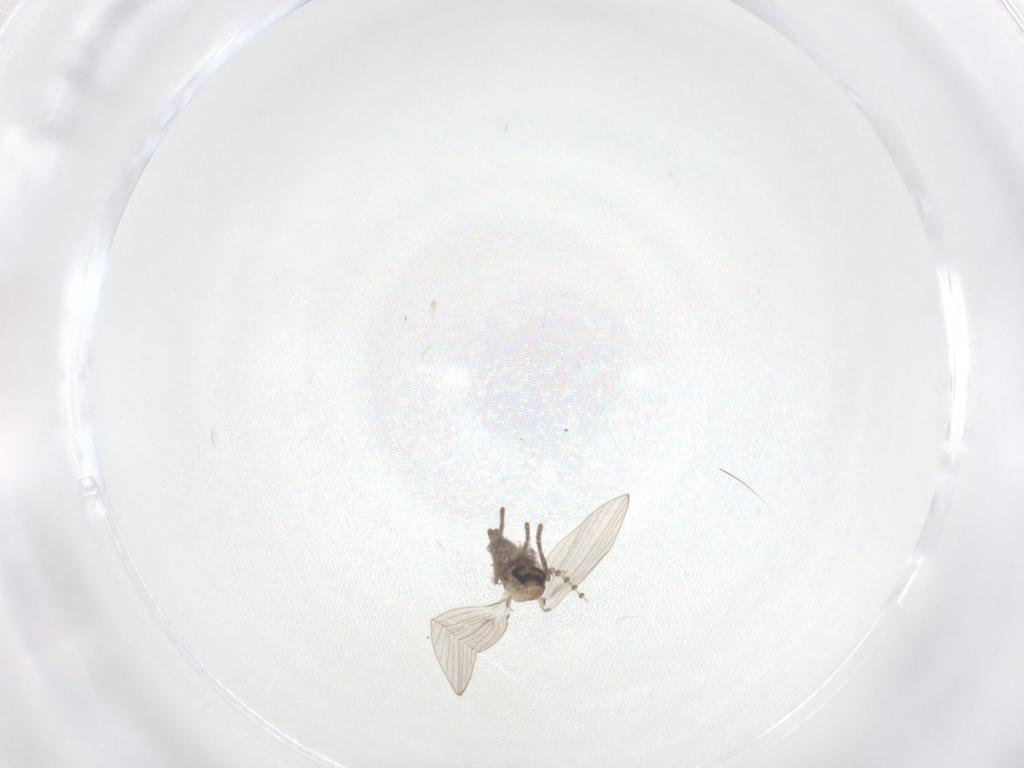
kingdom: Animalia
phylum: Arthropoda
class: Insecta
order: Diptera
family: Psychodidae
